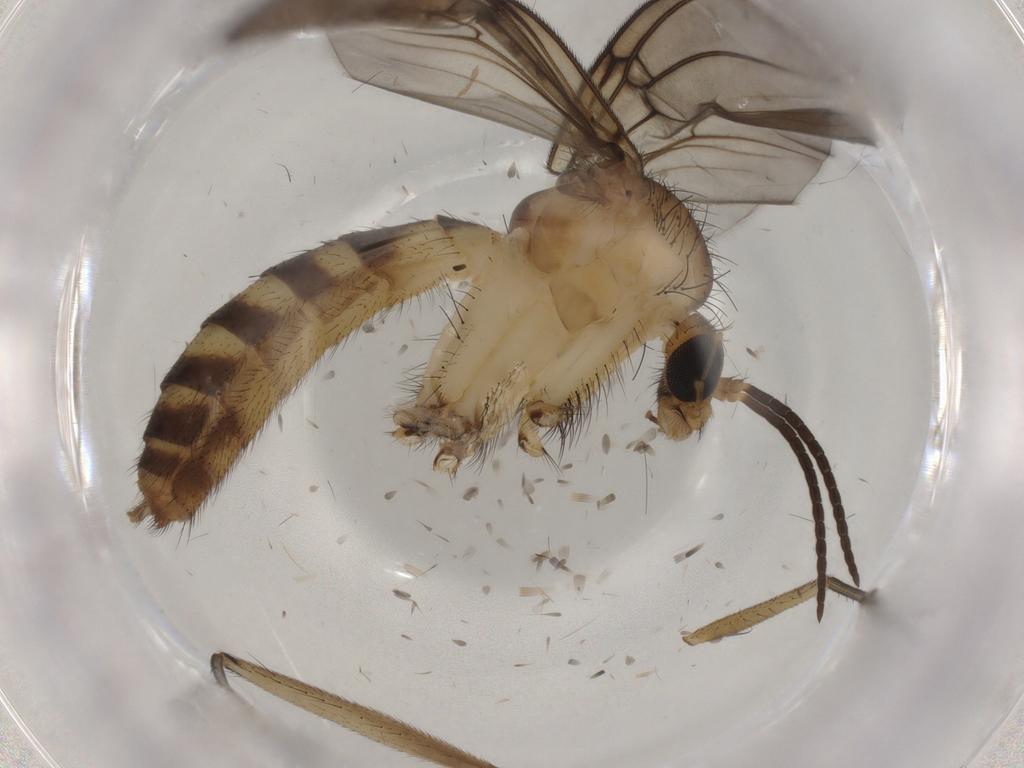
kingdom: Animalia
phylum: Arthropoda
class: Insecta
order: Diptera
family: Mycetophilidae
